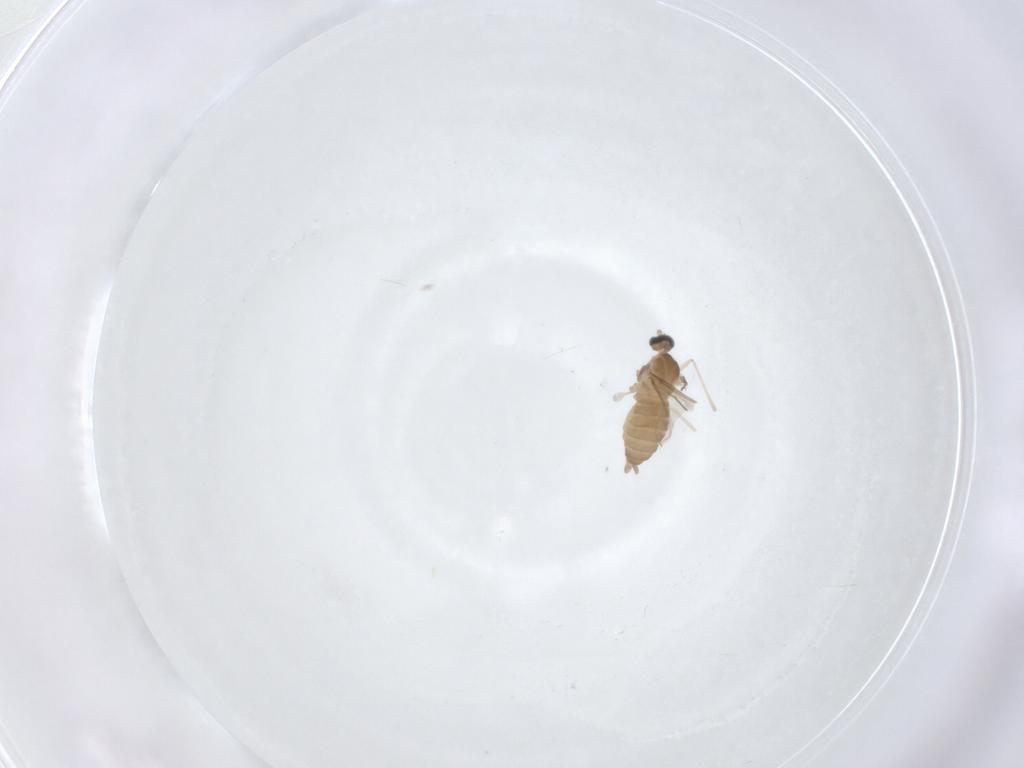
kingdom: Animalia
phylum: Arthropoda
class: Insecta
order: Diptera
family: Cecidomyiidae
